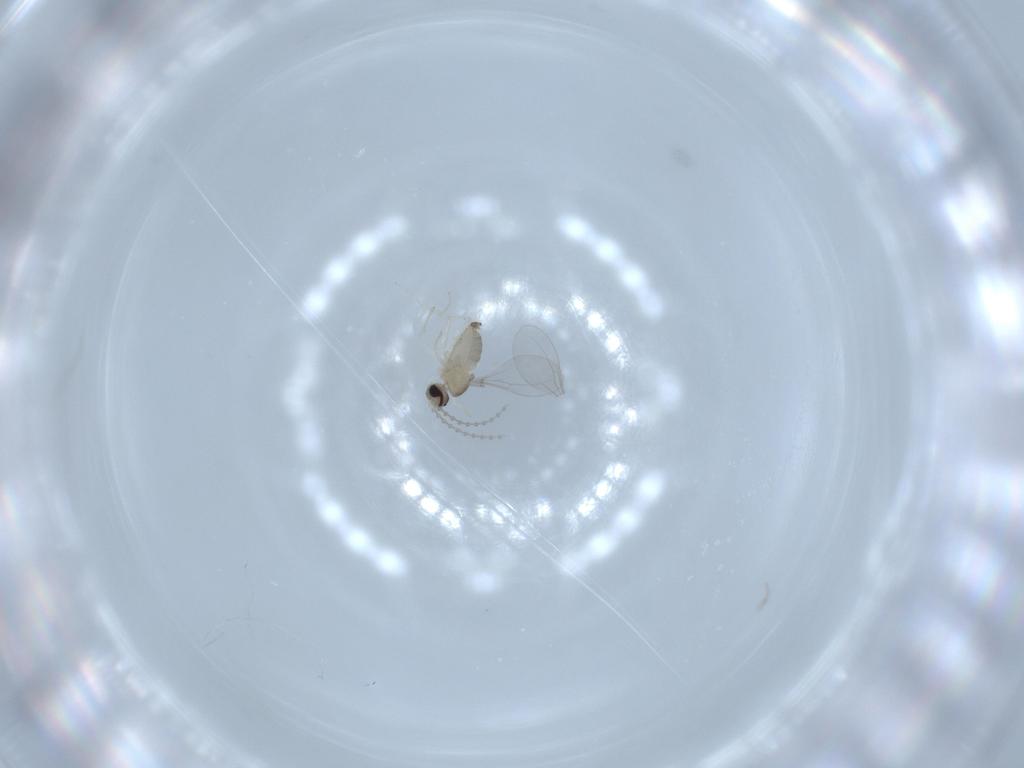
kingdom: Animalia
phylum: Arthropoda
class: Insecta
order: Diptera
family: Cecidomyiidae
